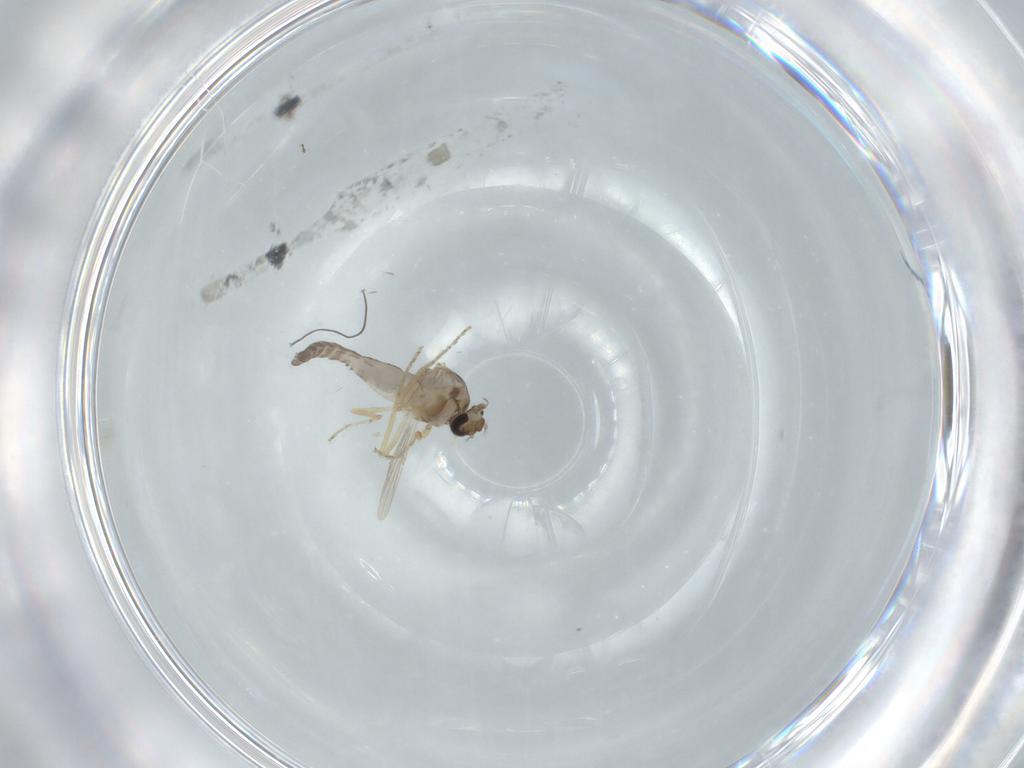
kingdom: Animalia
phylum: Arthropoda
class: Insecta
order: Diptera
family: Ceratopogonidae
